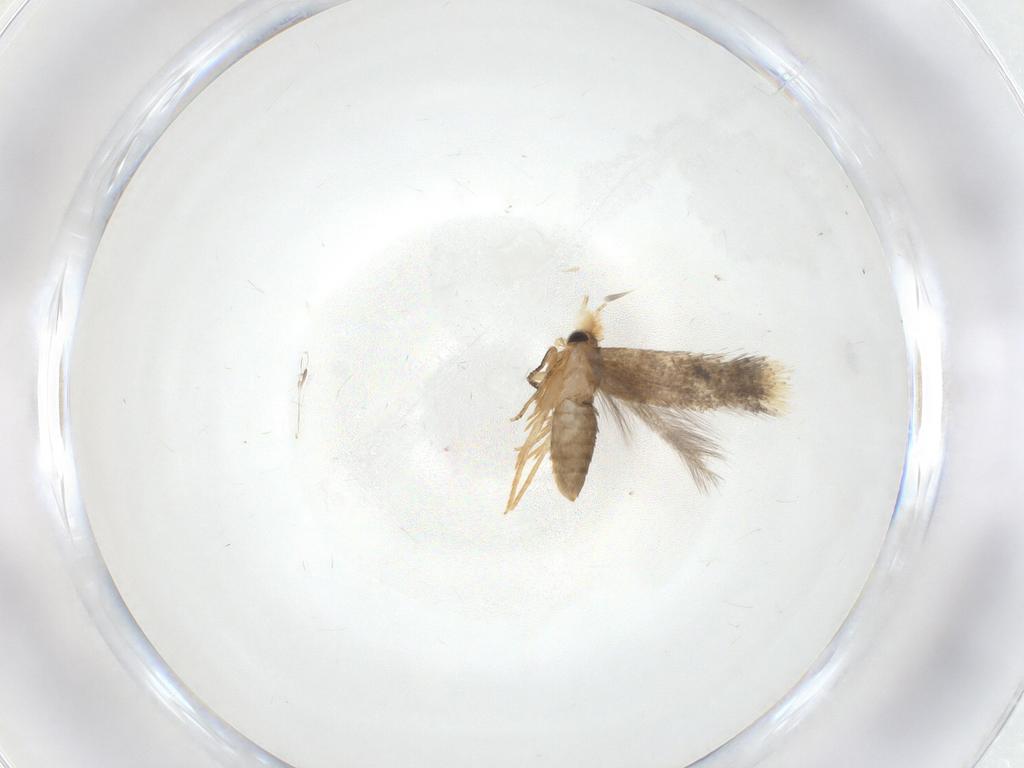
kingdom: Animalia
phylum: Arthropoda
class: Insecta
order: Lepidoptera
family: Nepticulidae
